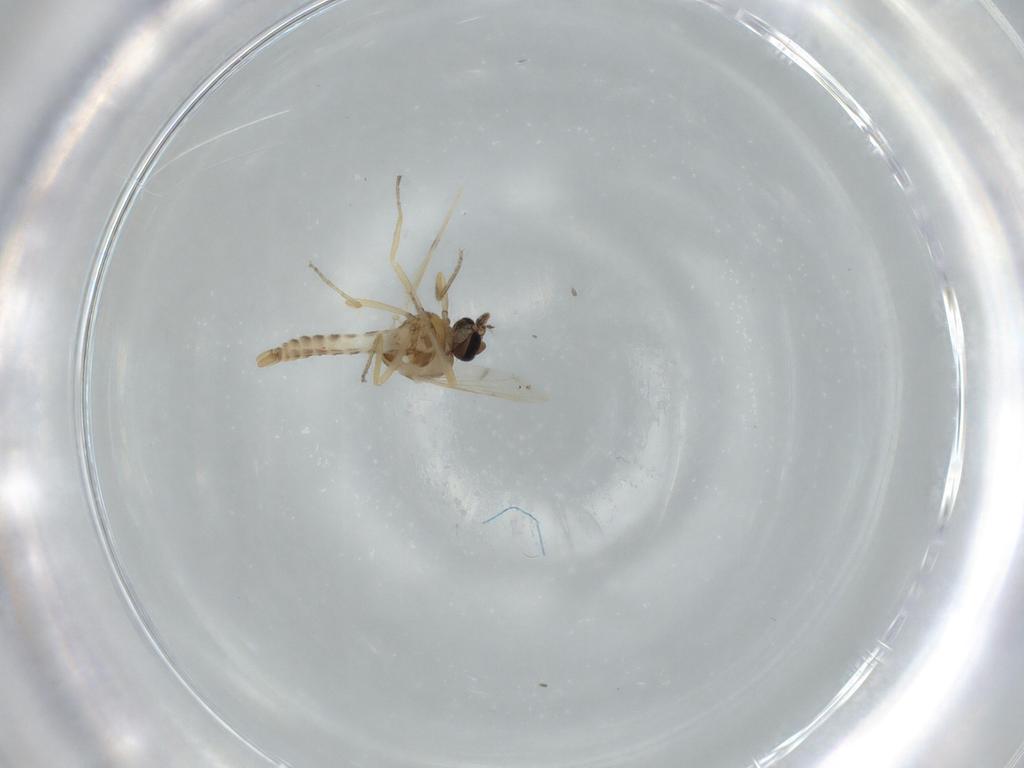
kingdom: Animalia
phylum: Arthropoda
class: Insecta
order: Diptera
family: Ceratopogonidae
